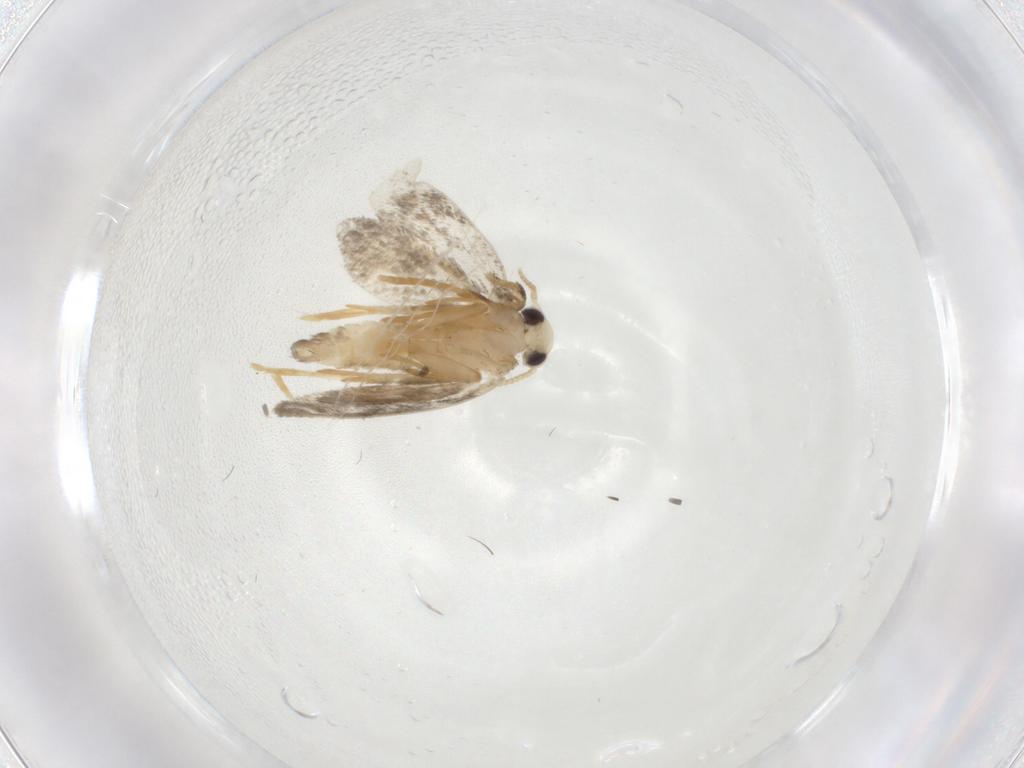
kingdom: Animalia
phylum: Arthropoda
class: Insecta
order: Lepidoptera
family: Psychidae
